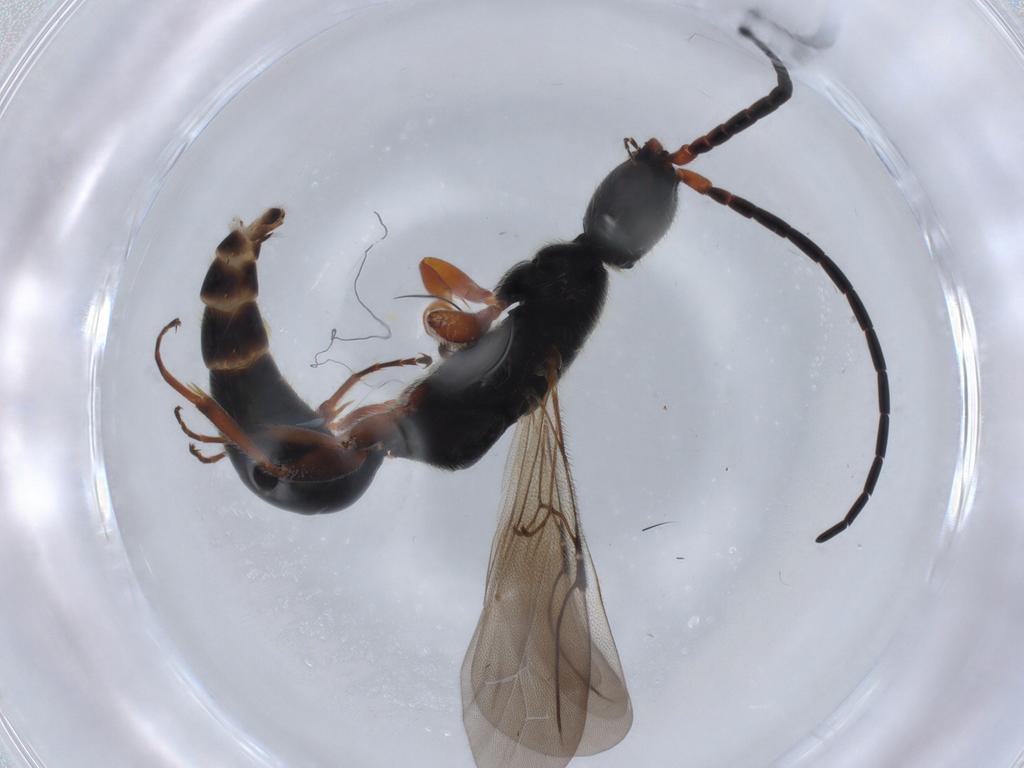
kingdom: Animalia
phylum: Arthropoda
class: Insecta
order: Hymenoptera
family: Bethylidae
